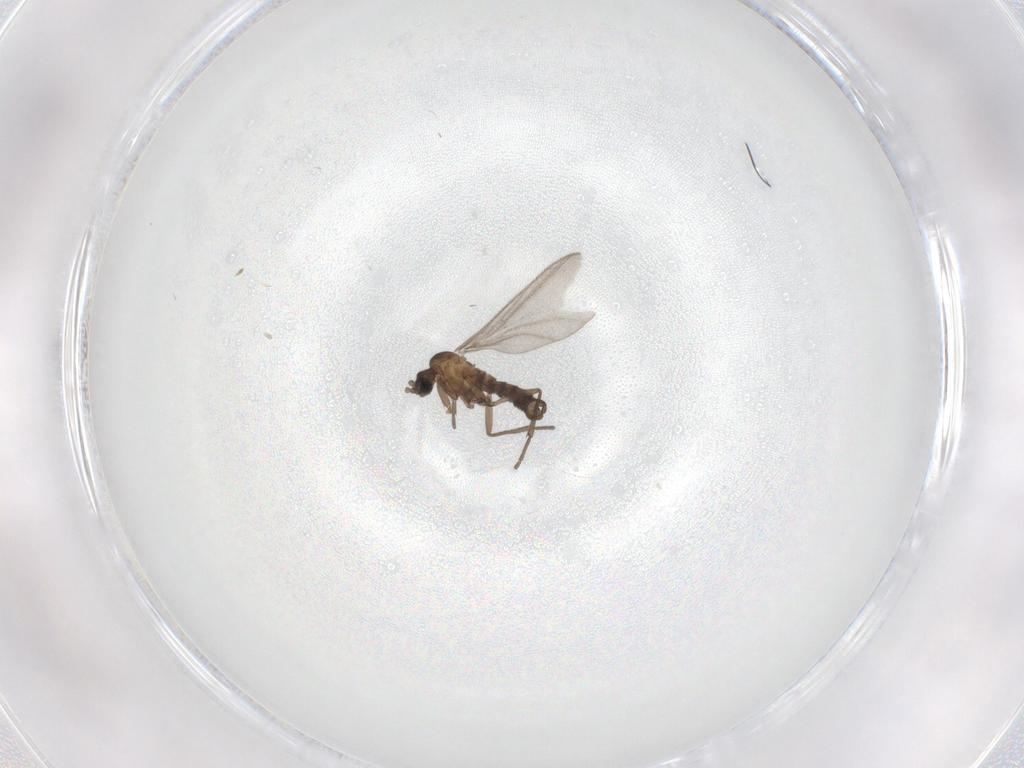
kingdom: Animalia
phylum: Arthropoda
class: Insecta
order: Diptera
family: Sciaridae
